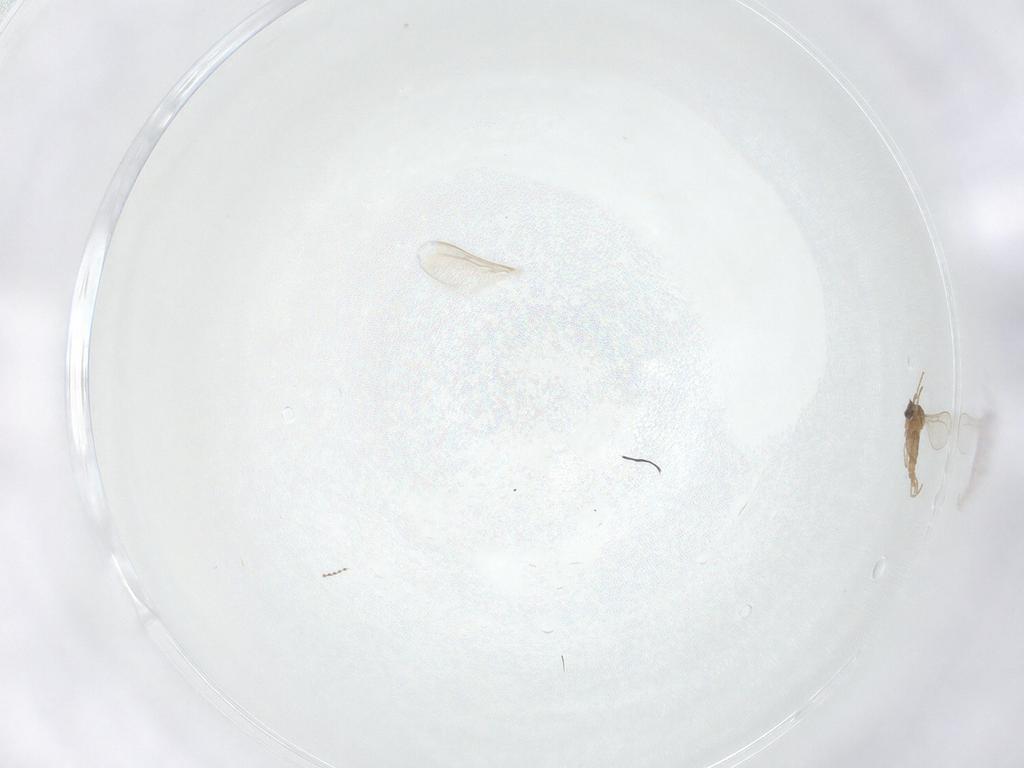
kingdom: Animalia
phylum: Arthropoda
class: Insecta
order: Diptera
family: Cecidomyiidae
